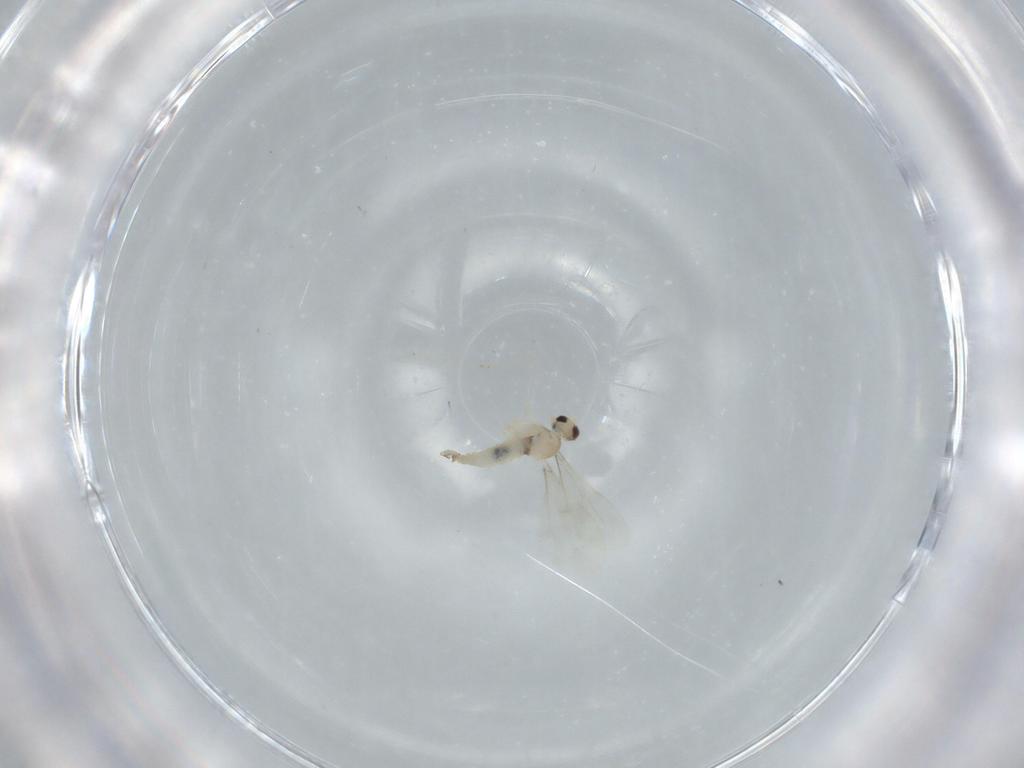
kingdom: Animalia
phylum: Arthropoda
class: Insecta
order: Diptera
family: Cecidomyiidae
